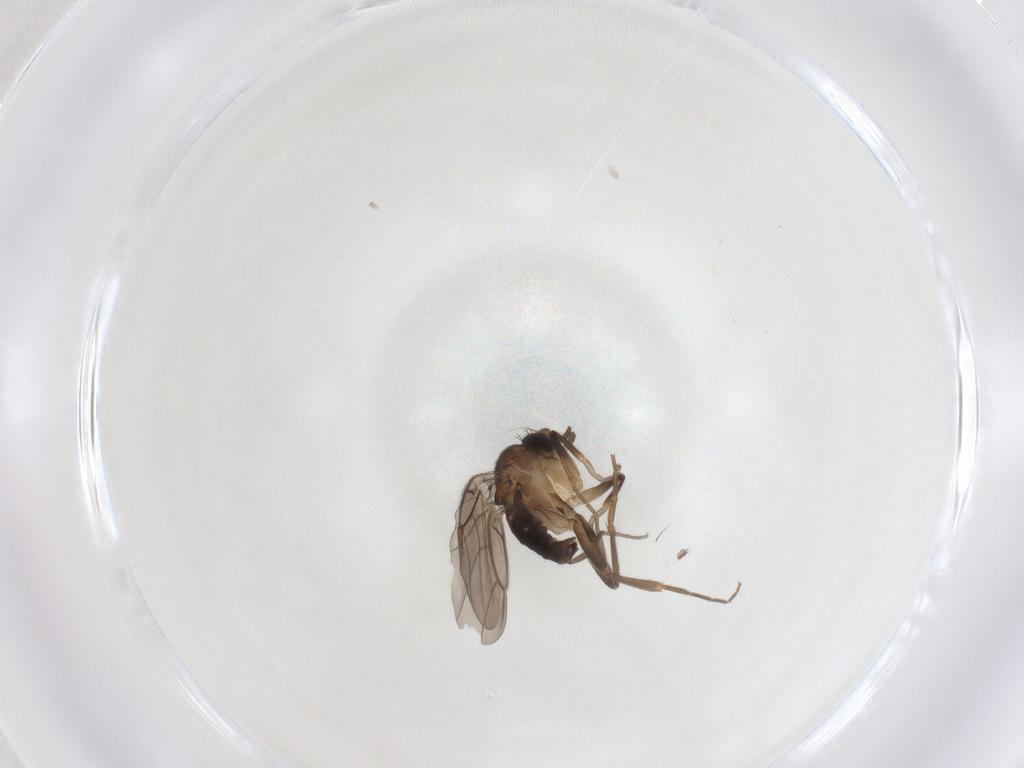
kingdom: Animalia
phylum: Arthropoda
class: Insecta
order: Diptera
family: Phoridae
